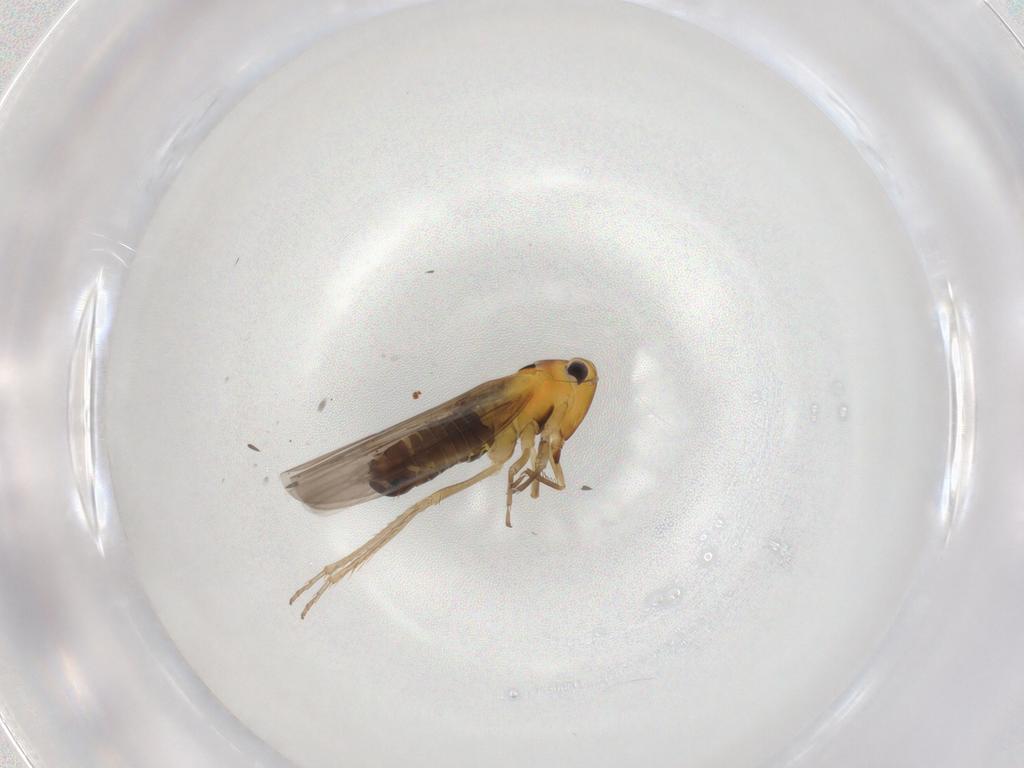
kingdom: Animalia
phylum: Arthropoda
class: Insecta
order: Hemiptera
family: Cicadellidae
